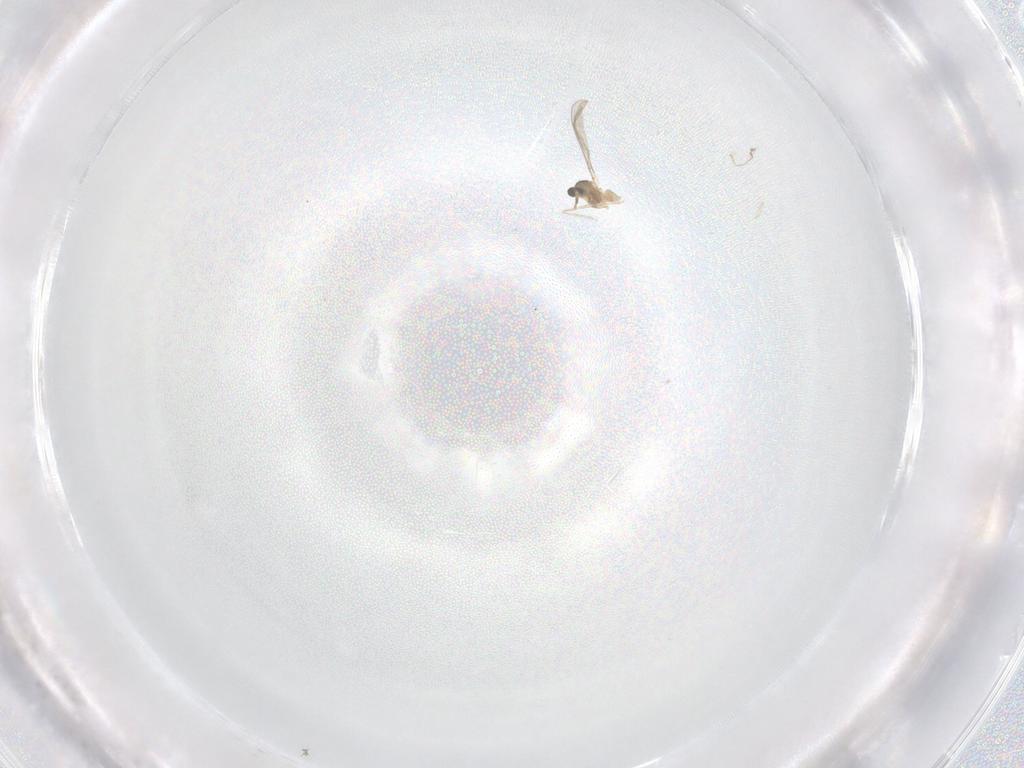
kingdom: Animalia
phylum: Arthropoda
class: Insecta
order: Diptera
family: Cecidomyiidae
